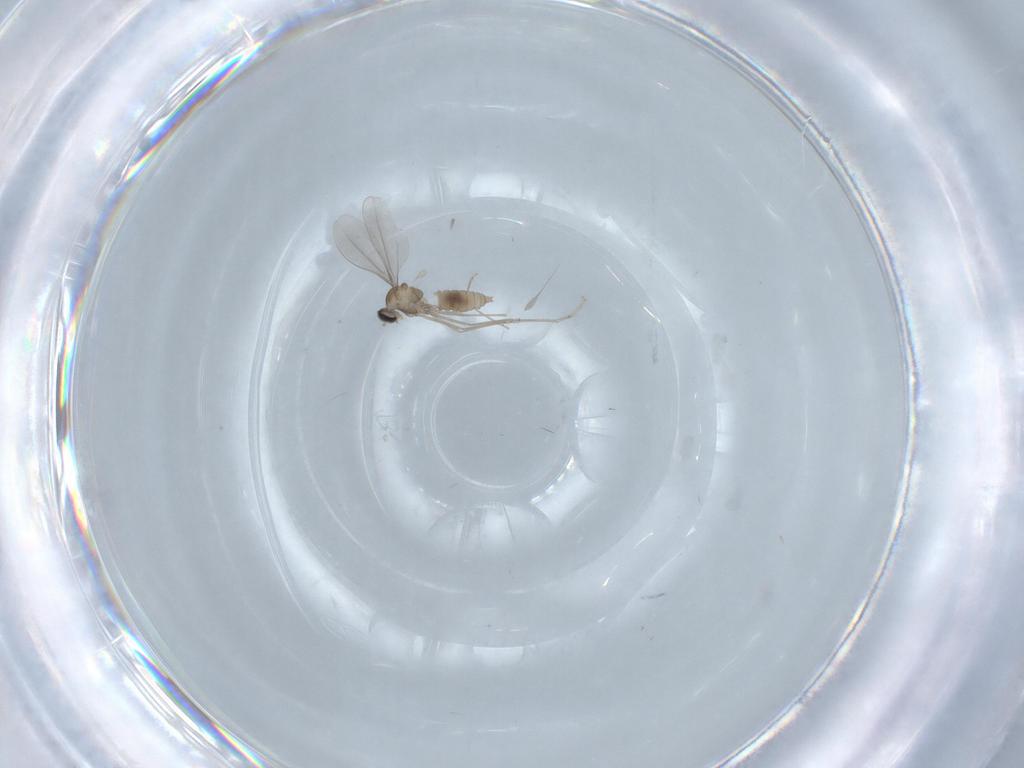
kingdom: Animalia
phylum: Arthropoda
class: Insecta
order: Diptera
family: Cecidomyiidae
